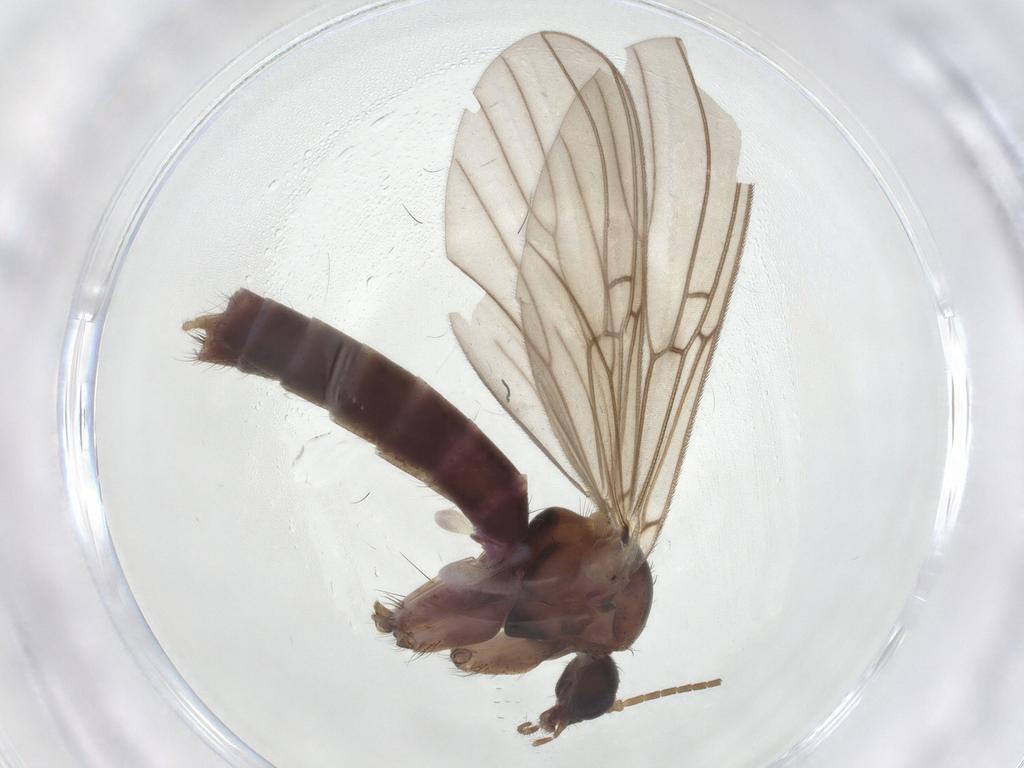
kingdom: Animalia
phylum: Arthropoda
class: Insecta
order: Diptera
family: Mycetophilidae
